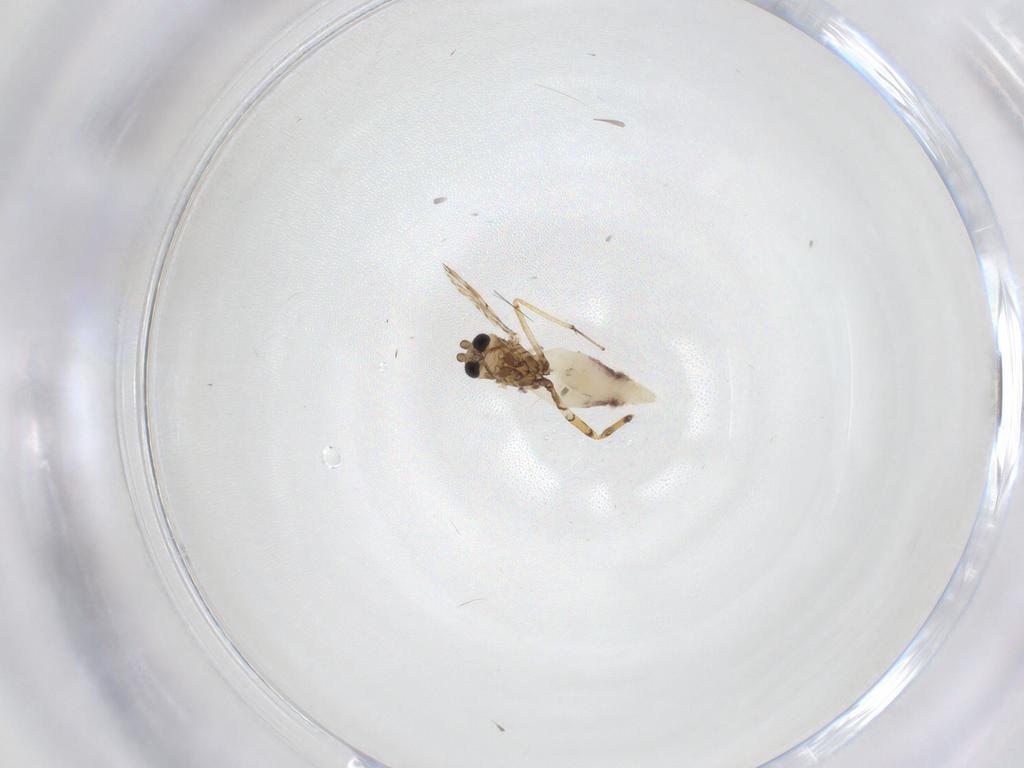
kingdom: Animalia
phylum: Arthropoda
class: Insecta
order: Diptera
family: Ceratopogonidae
